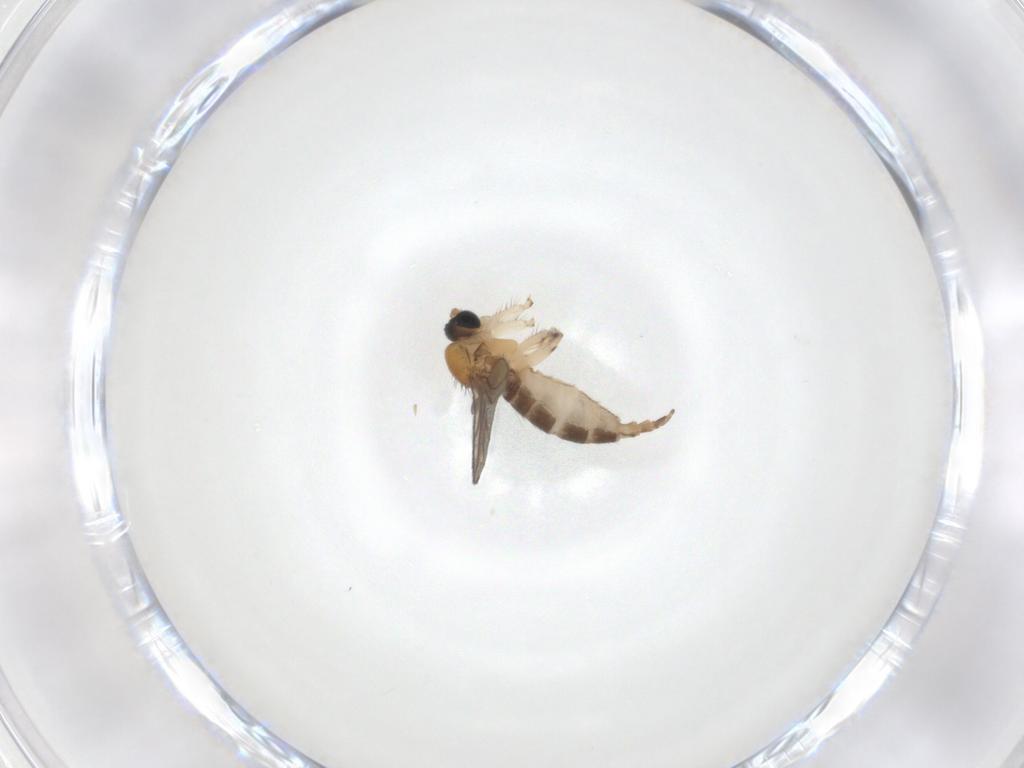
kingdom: Animalia
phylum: Arthropoda
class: Insecta
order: Diptera
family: Sciaridae
